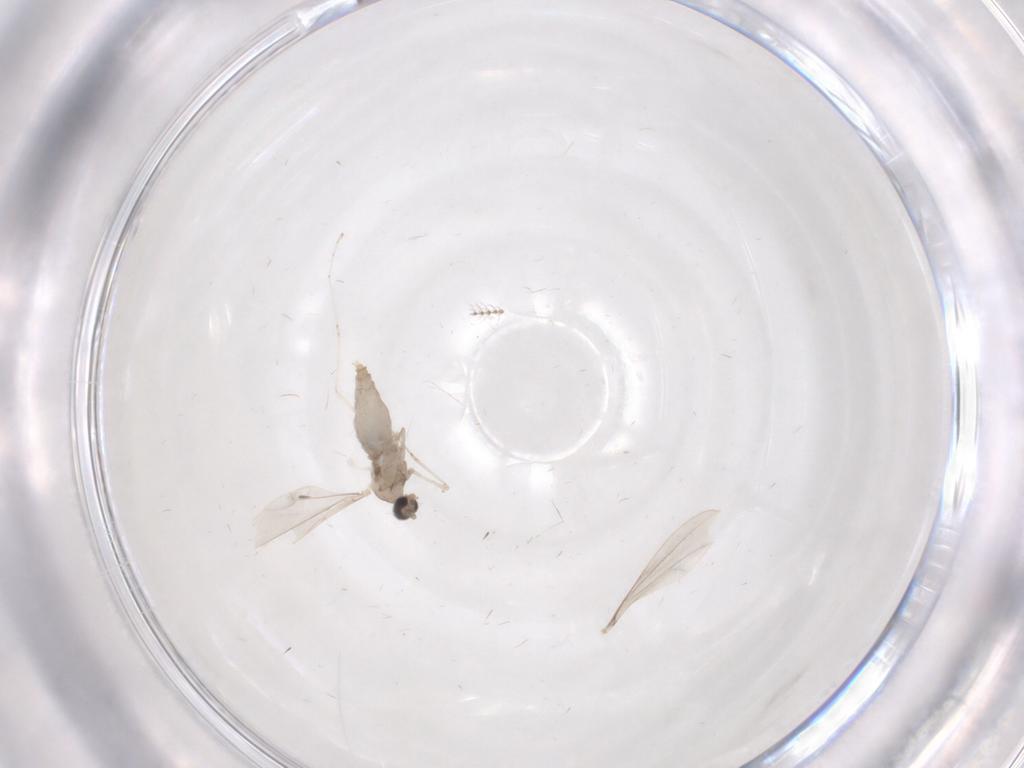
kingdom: Animalia
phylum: Arthropoda
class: Insecta
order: Diptera
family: Cecidomyiidae
